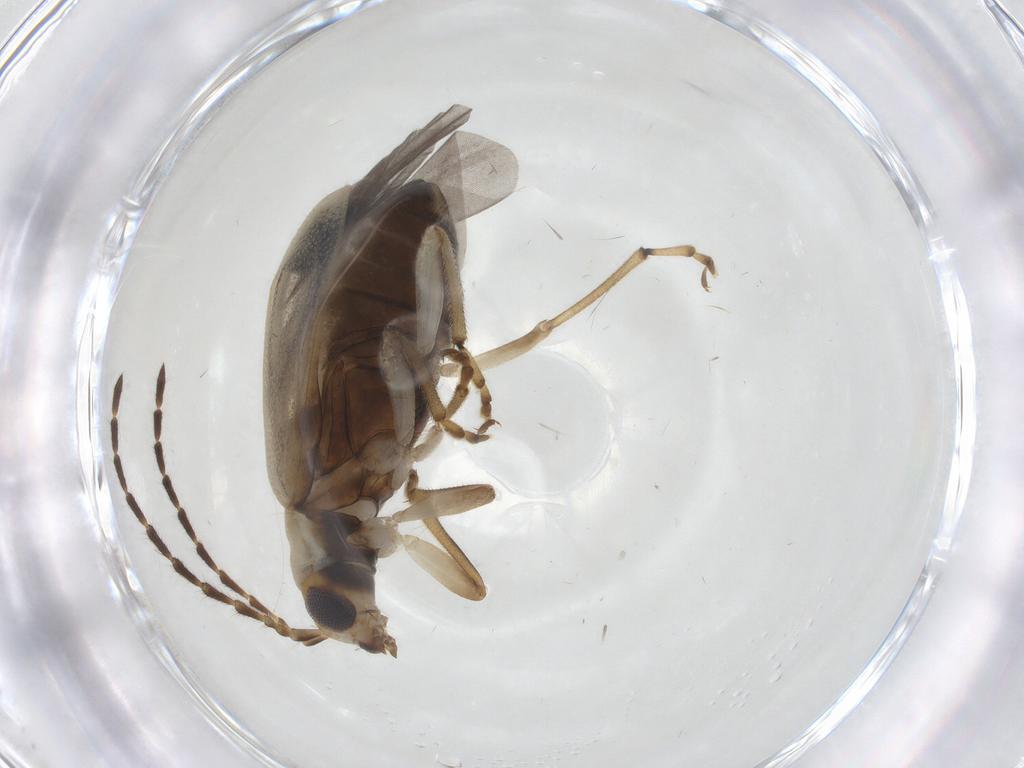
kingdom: Animalia
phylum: Arthropoda
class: Insecta
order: Coleoptera
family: Chrysomelidae
